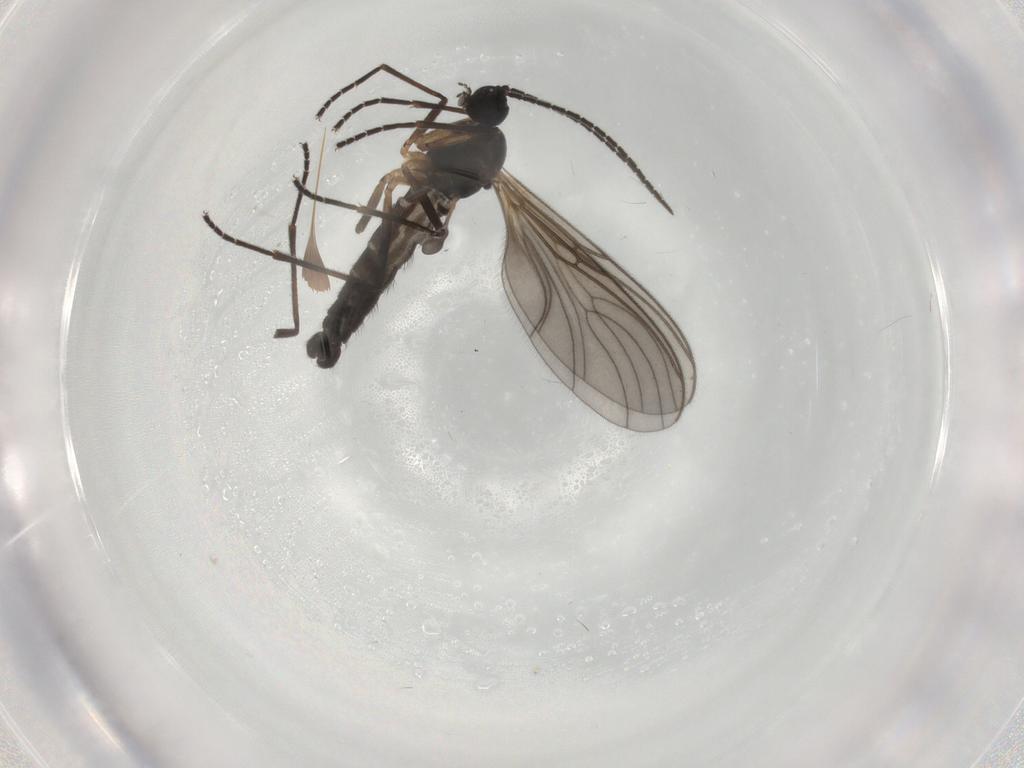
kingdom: Animalia
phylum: Arthropoda
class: Insecta
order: Diptera
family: Sciaridae
